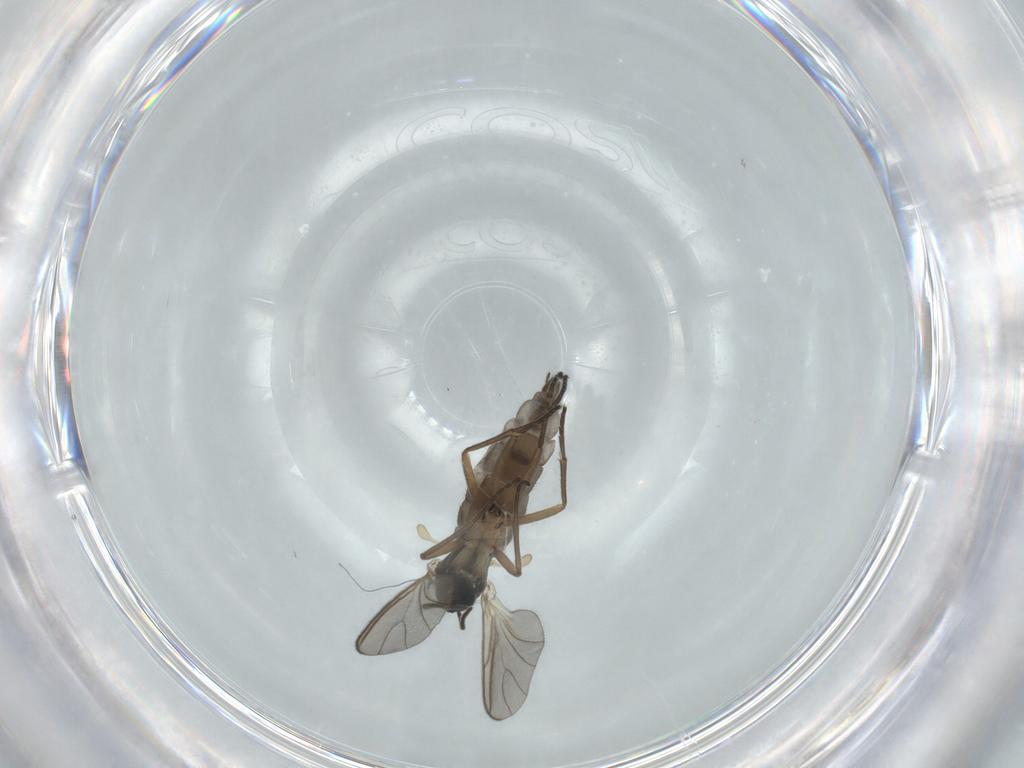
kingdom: Animalia
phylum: Arthropoda
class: Insecta
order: Diptera
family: Sciaridae
